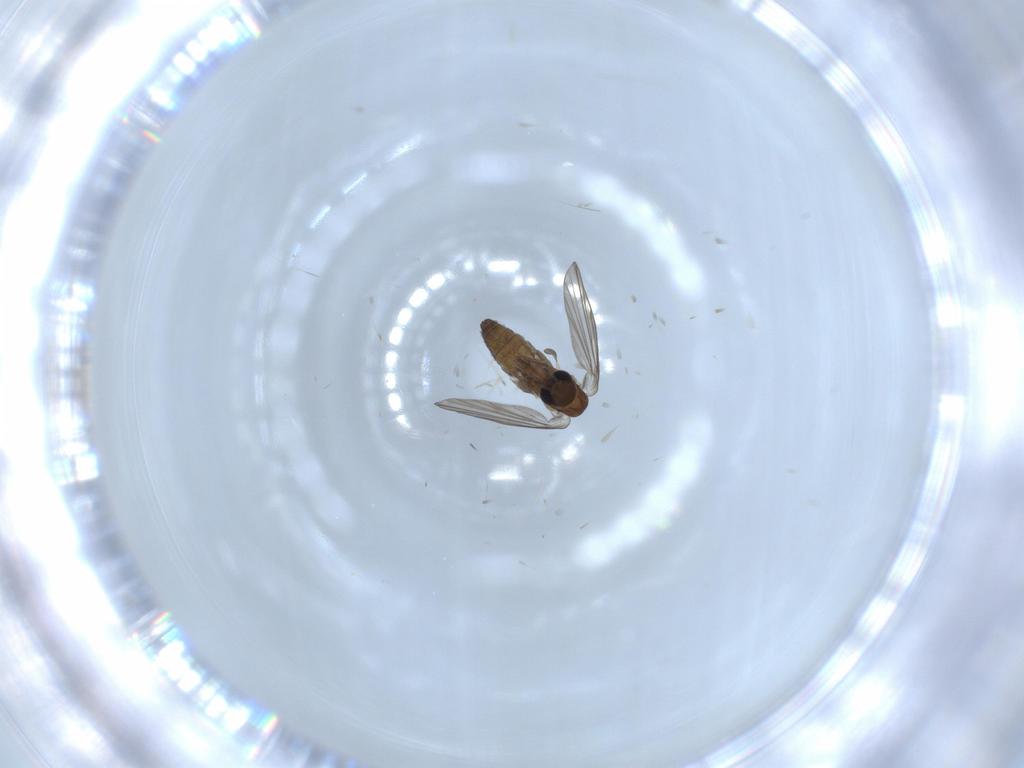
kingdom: Animalia
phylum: Arthropoda
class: Insecta
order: Diptera
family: Psychodidae
